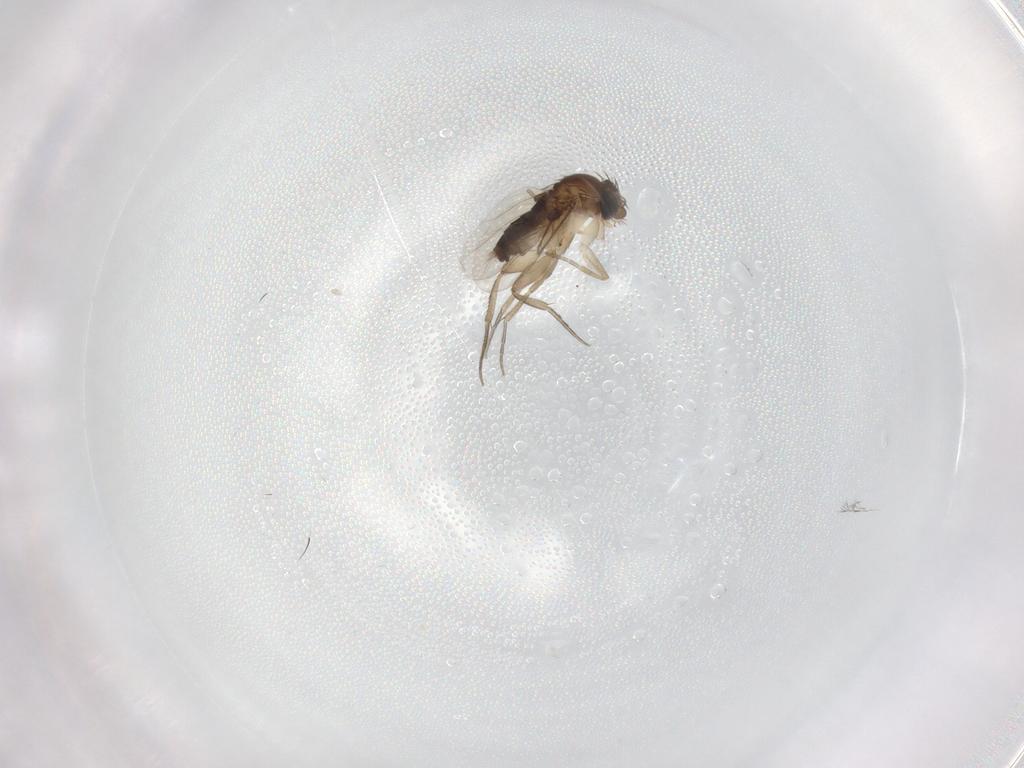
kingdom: Animalia
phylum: Arthropoda
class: Insecta
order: Diptera
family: Phoridae
